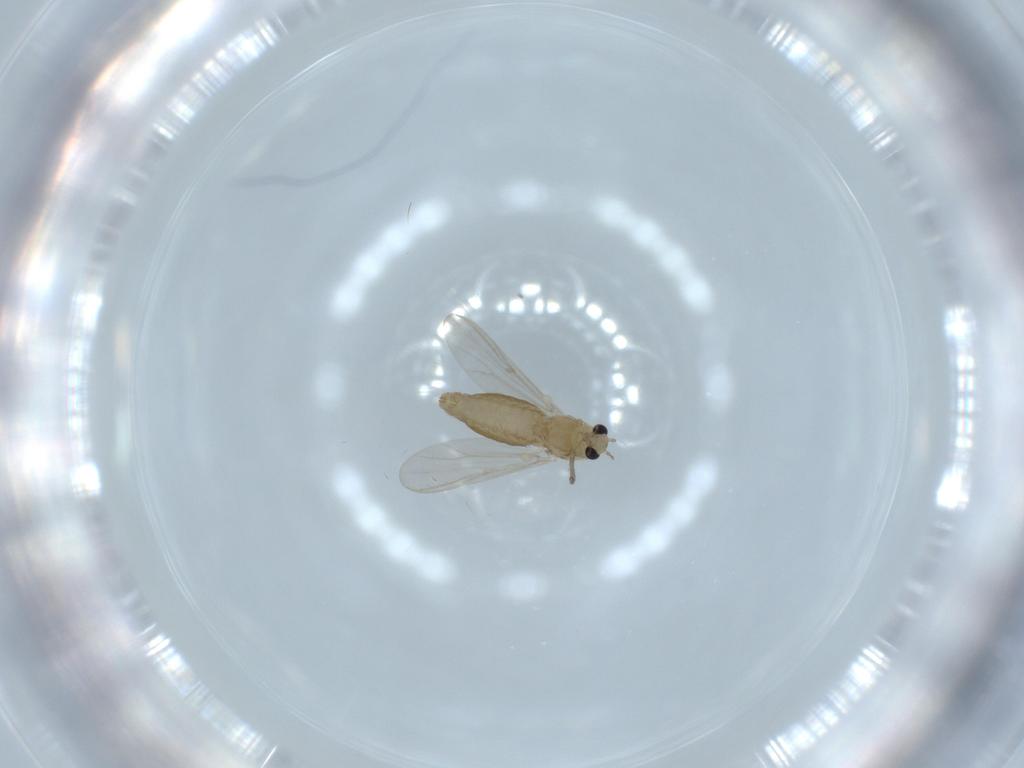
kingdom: Animalia
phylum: Arthropoda
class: Insecta
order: Diptera
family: Chironomidae
